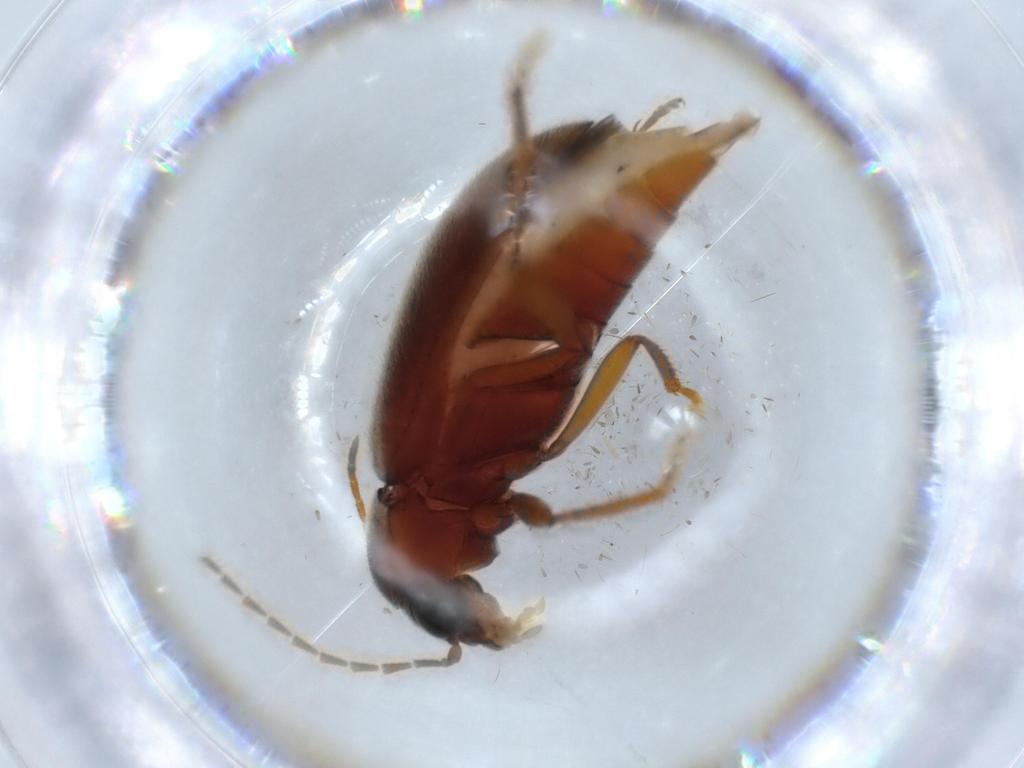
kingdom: Animalia
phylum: Arthropoda
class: Insecta
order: Coleoptera
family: Ptilodactylidae
